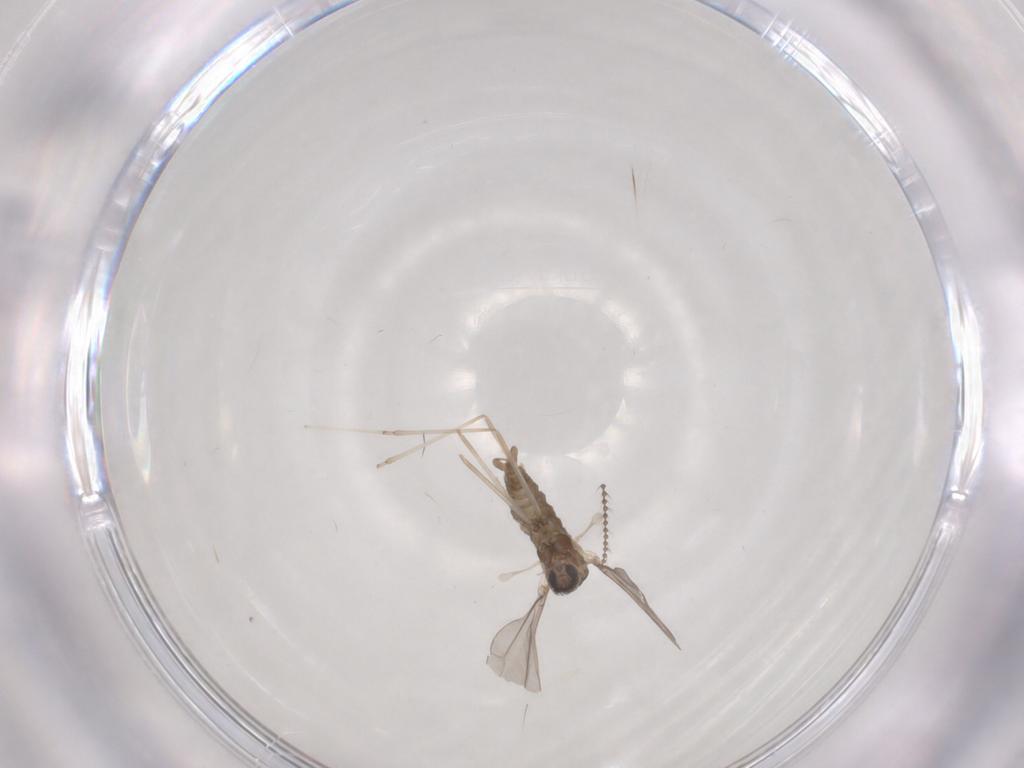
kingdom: Animalia
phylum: Arthropoda
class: Insecta
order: Diptera
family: Cecidomyiidae
